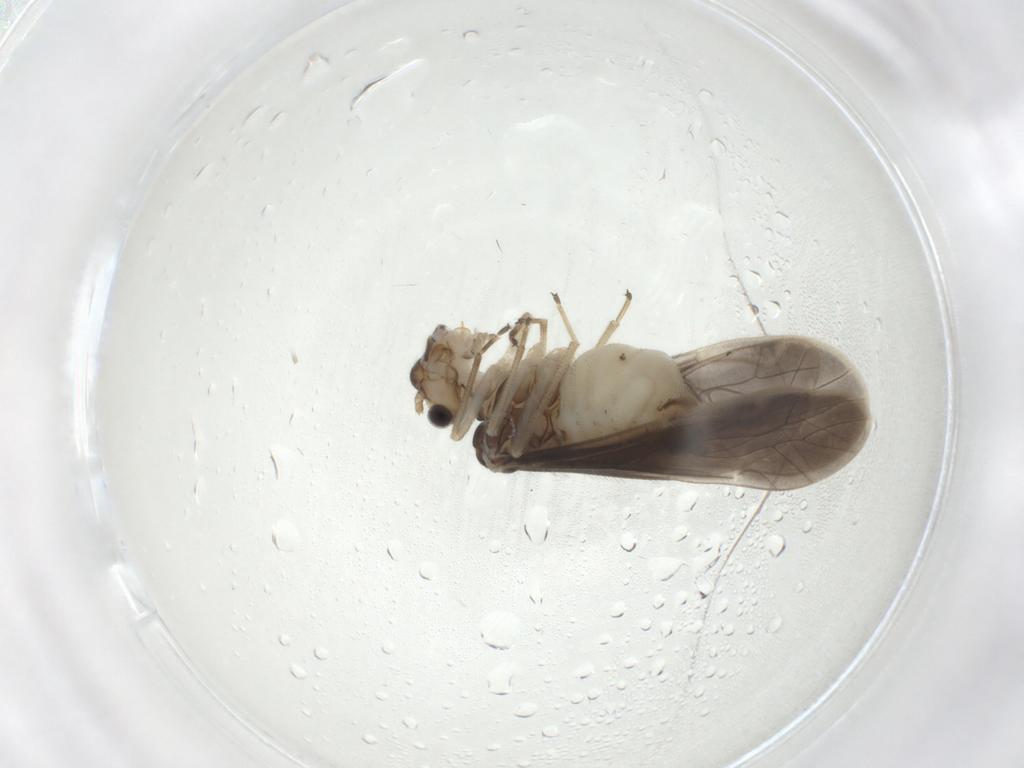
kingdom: Animalia
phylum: Arthropoda
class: Insecta
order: Psocodea
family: Caeciliusidae
